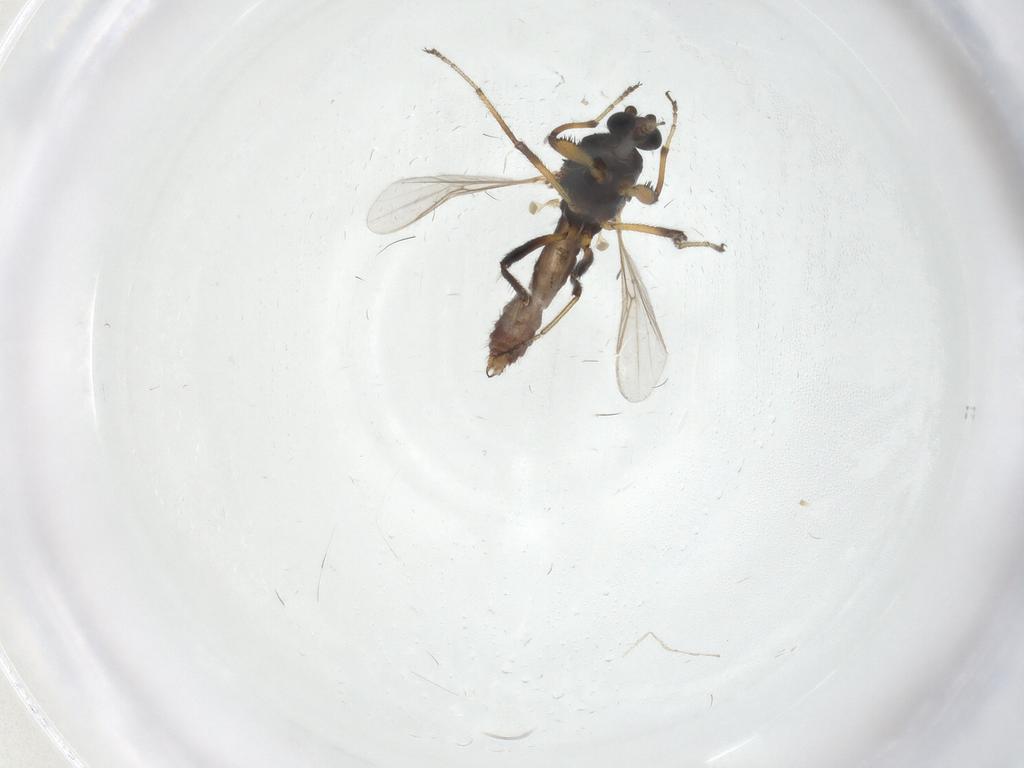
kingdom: Animalia
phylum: Arthropoda
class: Insecta
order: Diptera
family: Ceratopogonidae
